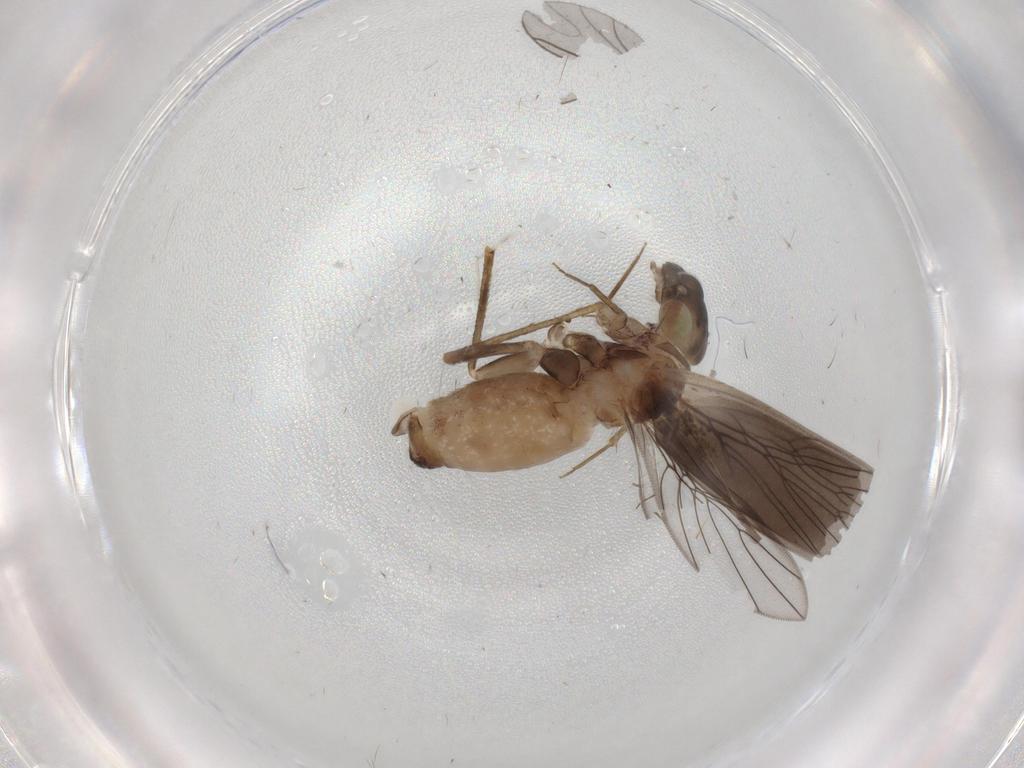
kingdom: Animalia
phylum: Arthropoda
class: Insecta
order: Psocodea
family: Lepidopsocidae
